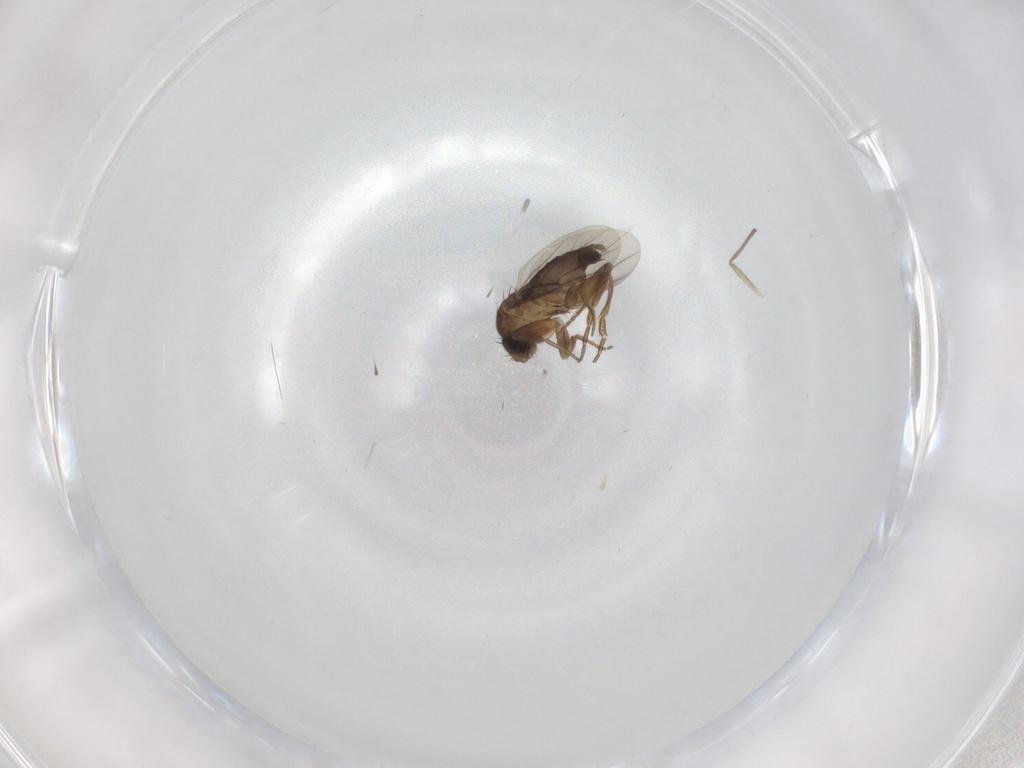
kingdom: Animalia
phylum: Arthropoda
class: Insecta
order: Diptera
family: Phoridae
